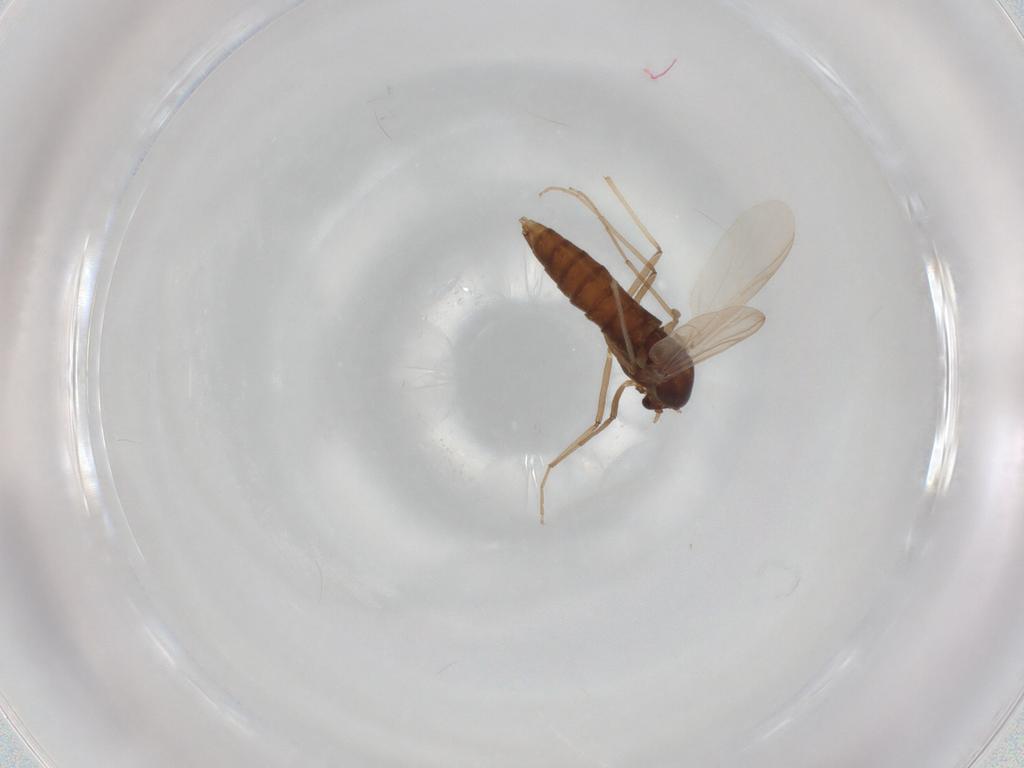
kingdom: Animalia
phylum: Arthropoda
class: Insecta
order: Diptera
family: Chironomidae
